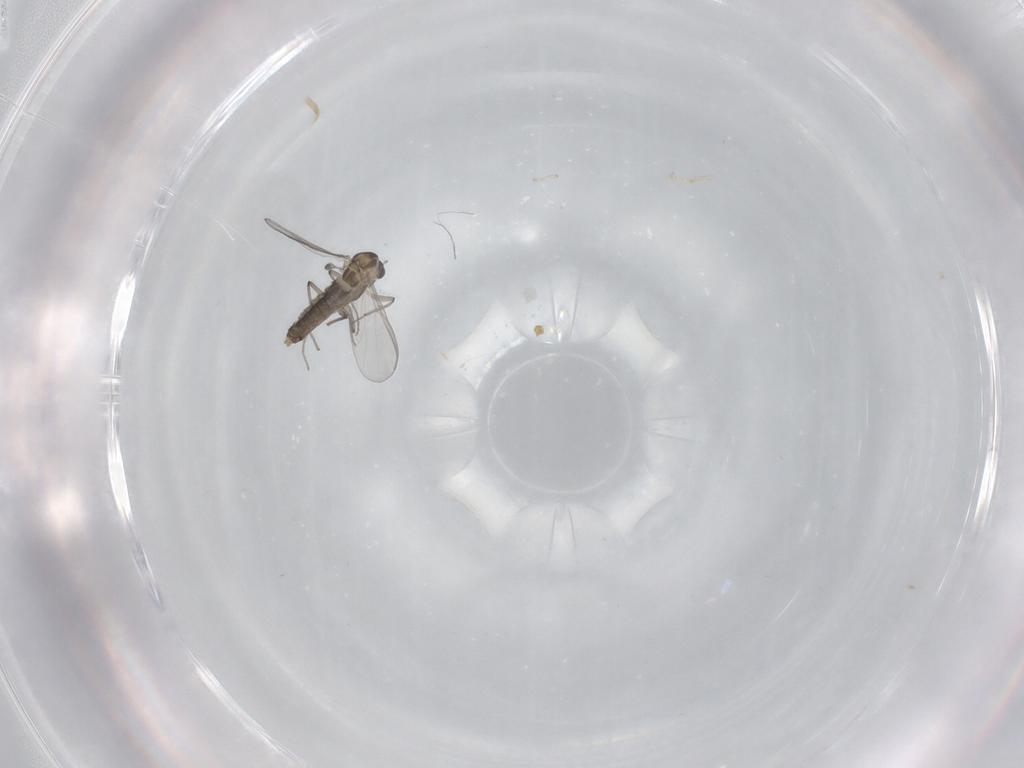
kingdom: Animalia
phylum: Arthropoda
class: Insecta
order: Diptera
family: Chironomidae
